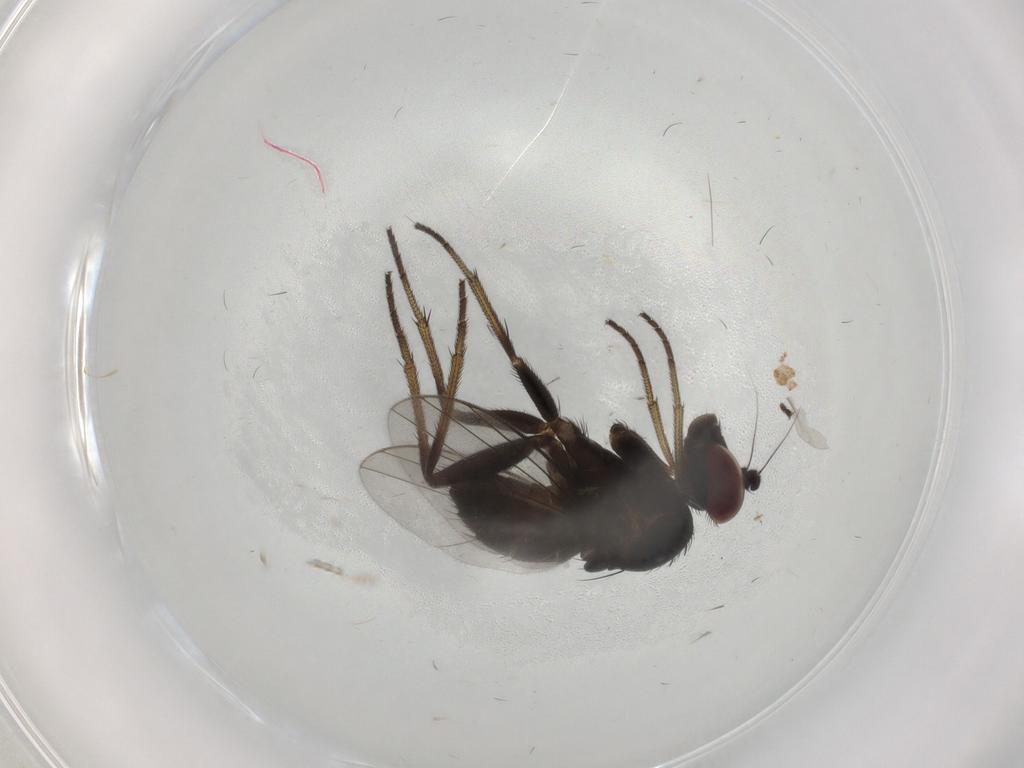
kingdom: Animalia
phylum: Arthropoda
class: Insecta
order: Diptera
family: Dolichopodidae
